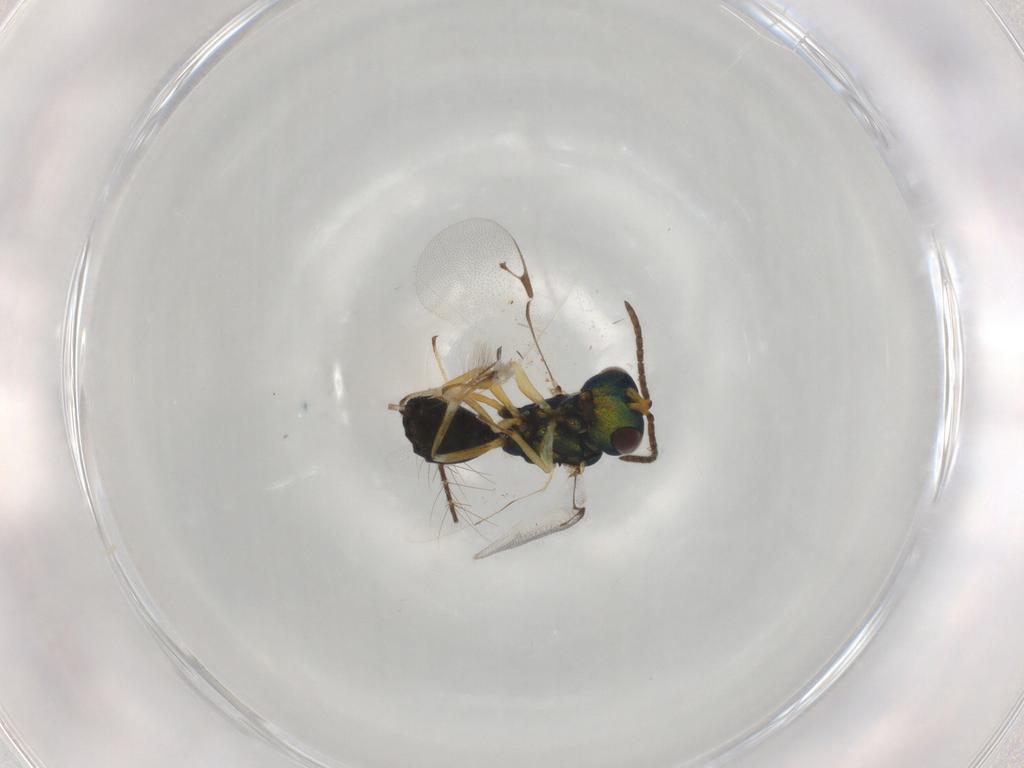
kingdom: Animalia
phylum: Arthropoda
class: Insecta
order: Hymenoptera
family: Pteromalidae
